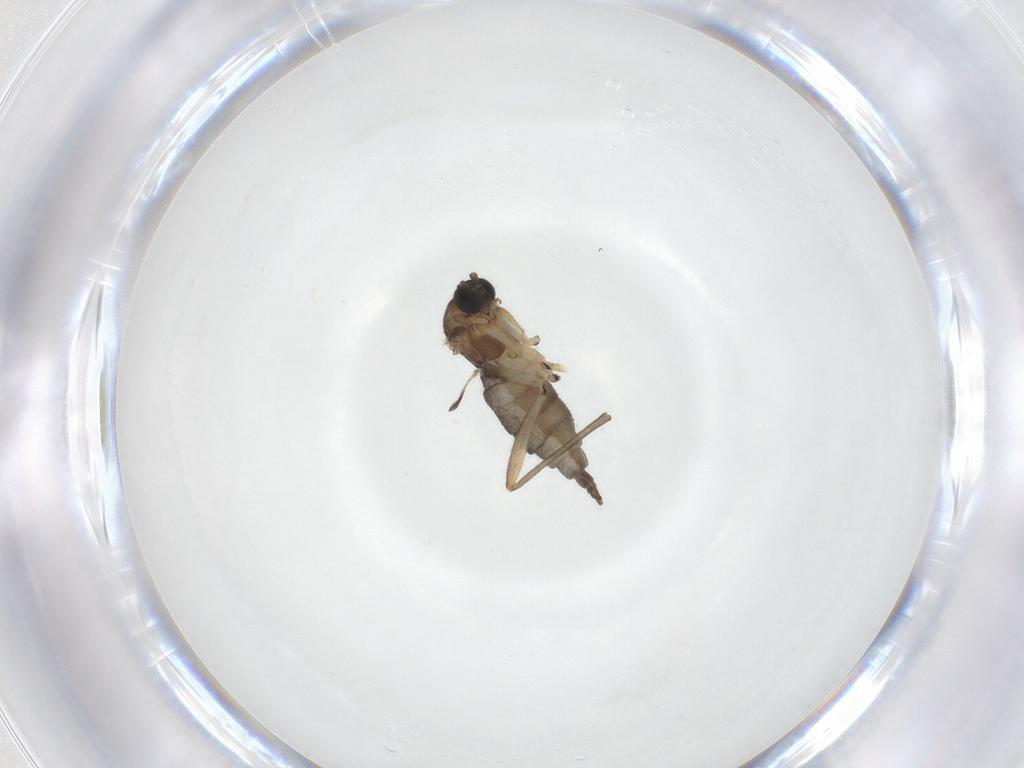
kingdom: Animalia
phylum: Arthropoda
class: Insecta
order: Diptera
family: Sciaridae
